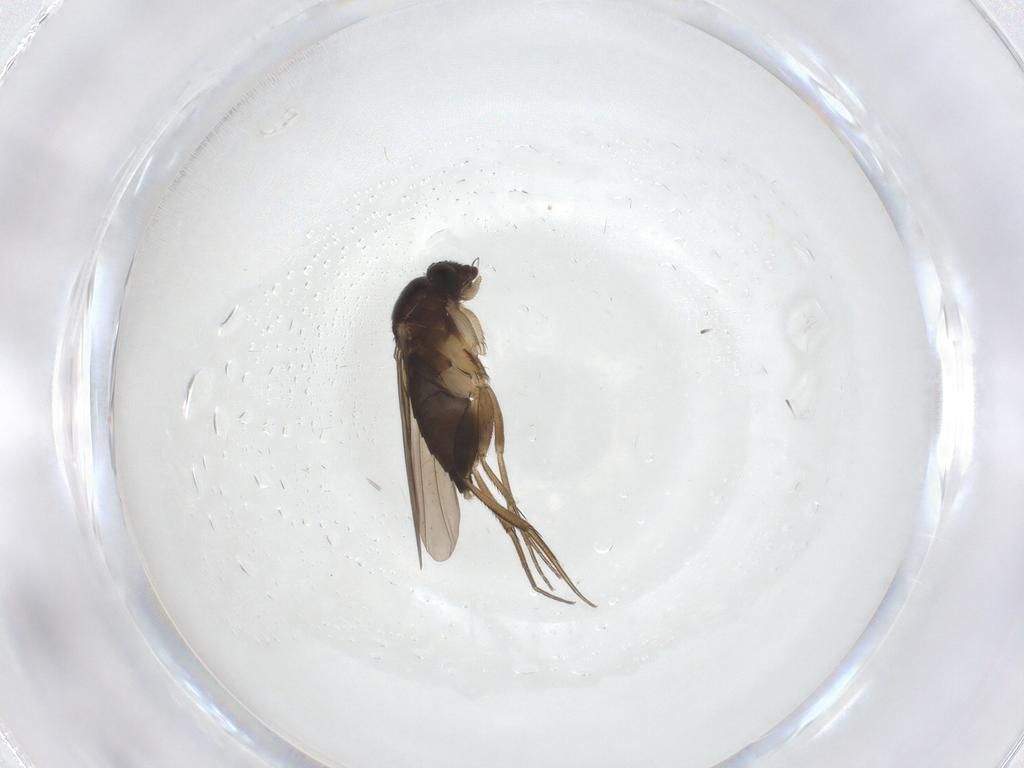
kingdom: Animalia
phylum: Arthropoda
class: Insecta
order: Diptera
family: Phoridae
